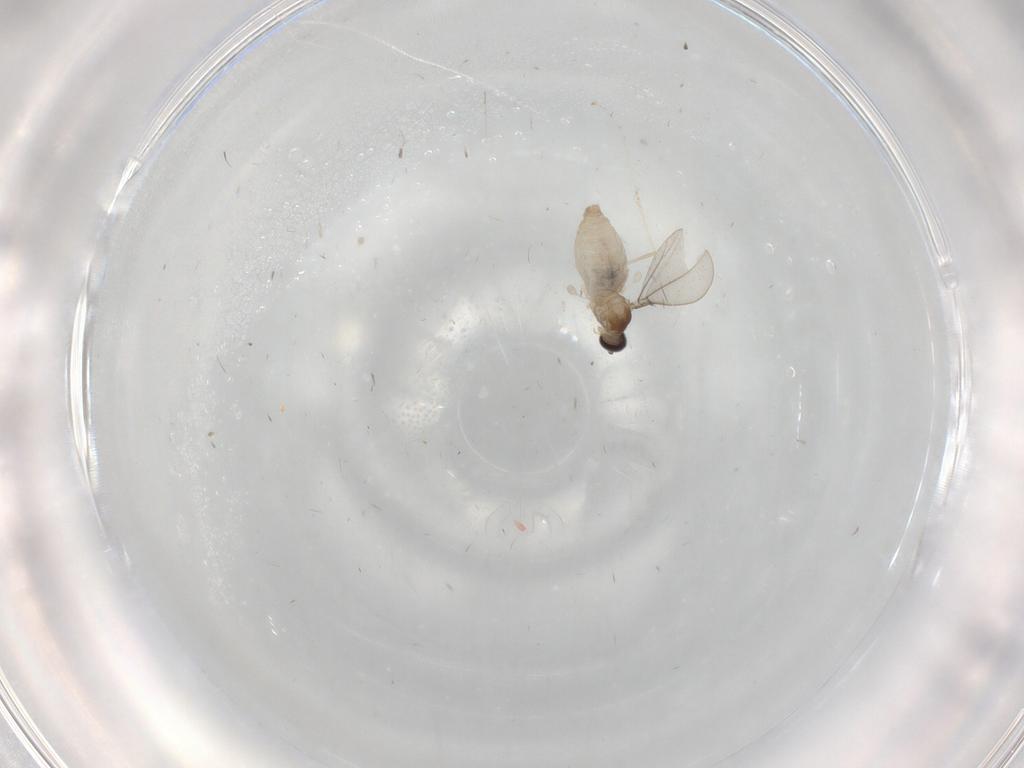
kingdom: Animalia
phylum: Arthropoda
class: Insecta
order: Diptera
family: Cecidomyiidae
